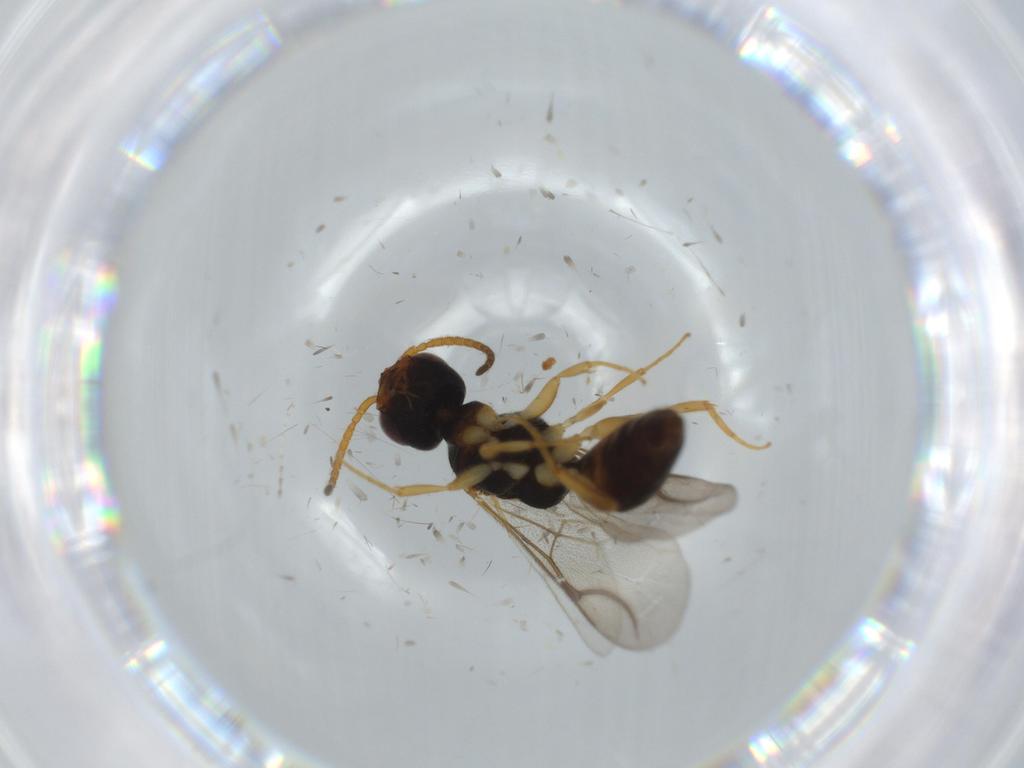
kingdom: Animalia
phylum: Arthropoda
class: Insecta
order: Hymenoptera
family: Bethylidae
